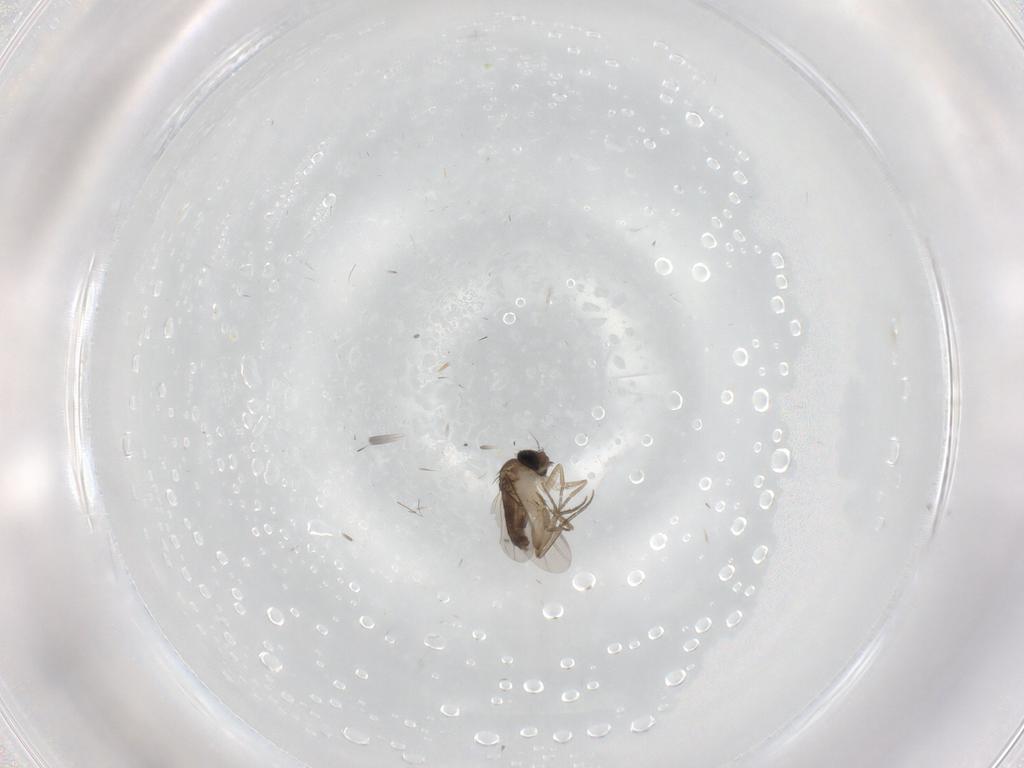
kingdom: Animalia
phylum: Arthropoda
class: Insecta
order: Diptera
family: Phoridae
